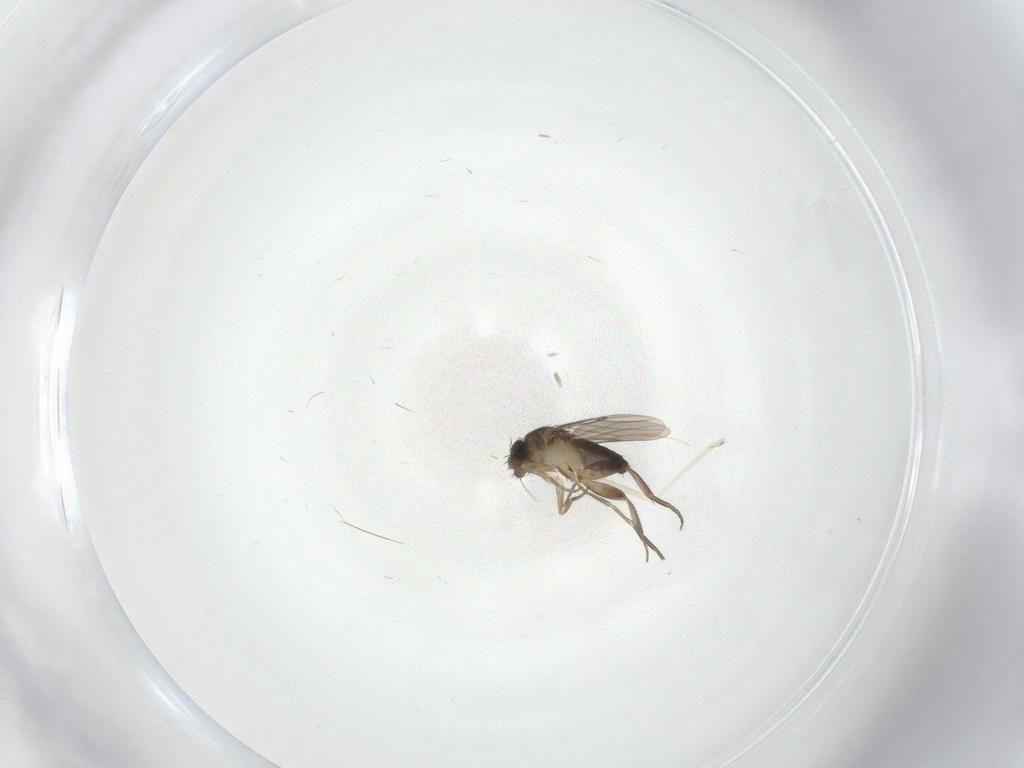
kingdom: Animalia
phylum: Arthropoda
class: Insecta
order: Diptera
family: Phoridae
